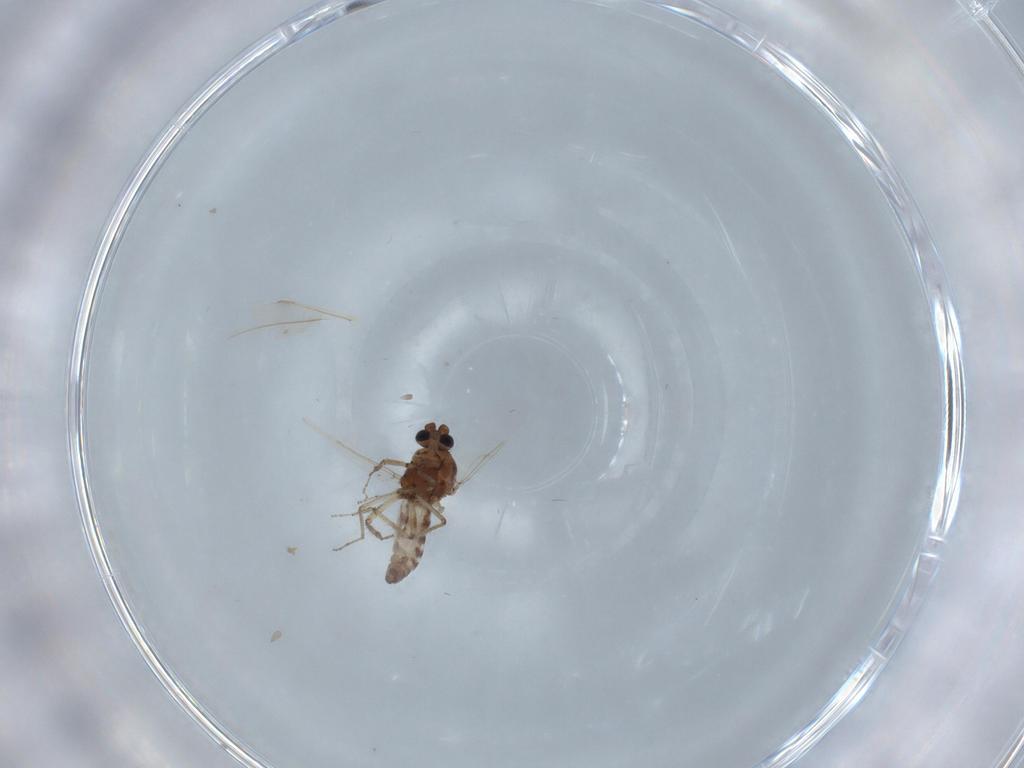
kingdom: Animalia
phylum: Arthropoda
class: Insecta
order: Diptera
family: Ceratopogonidae
